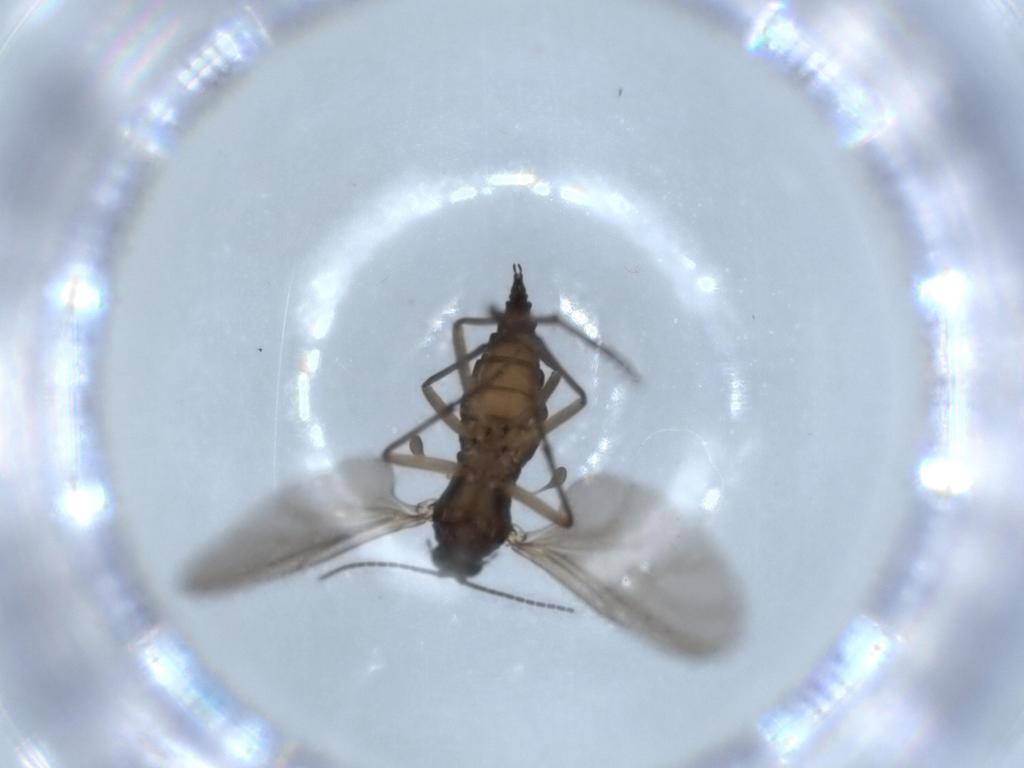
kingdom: Animalia
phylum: Arthropoda
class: Insecta
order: Diptera
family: Sciaridae
